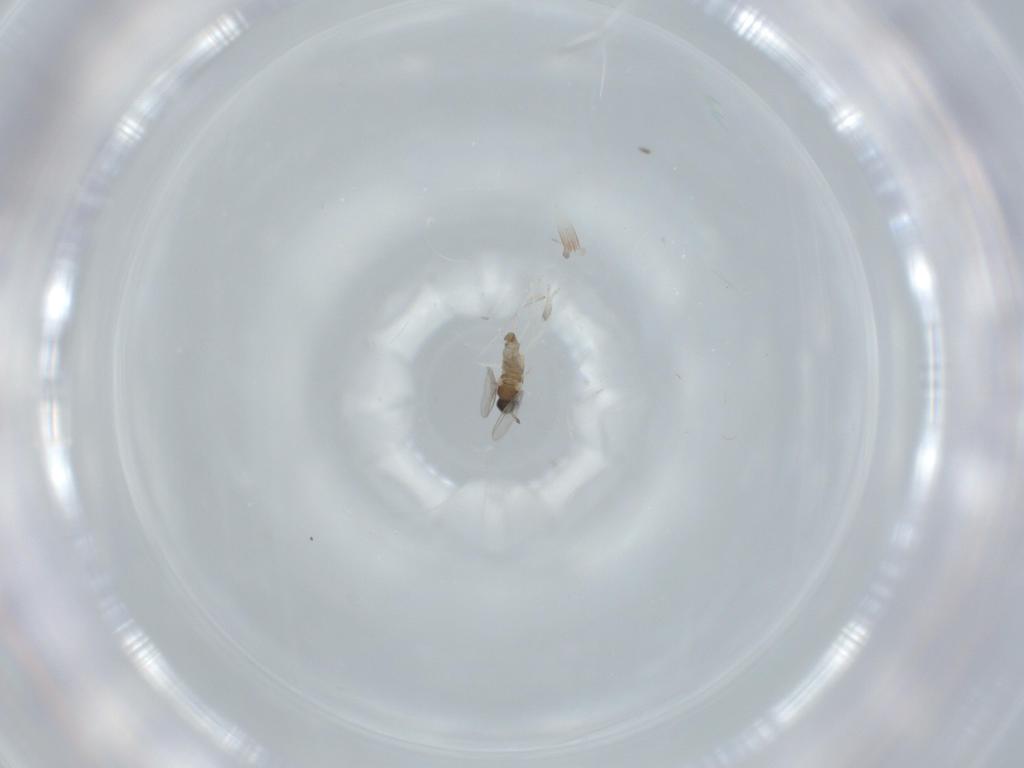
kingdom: Animalia
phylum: Arthropoda
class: Insecta
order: Diptera
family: Cecidomyiidae
